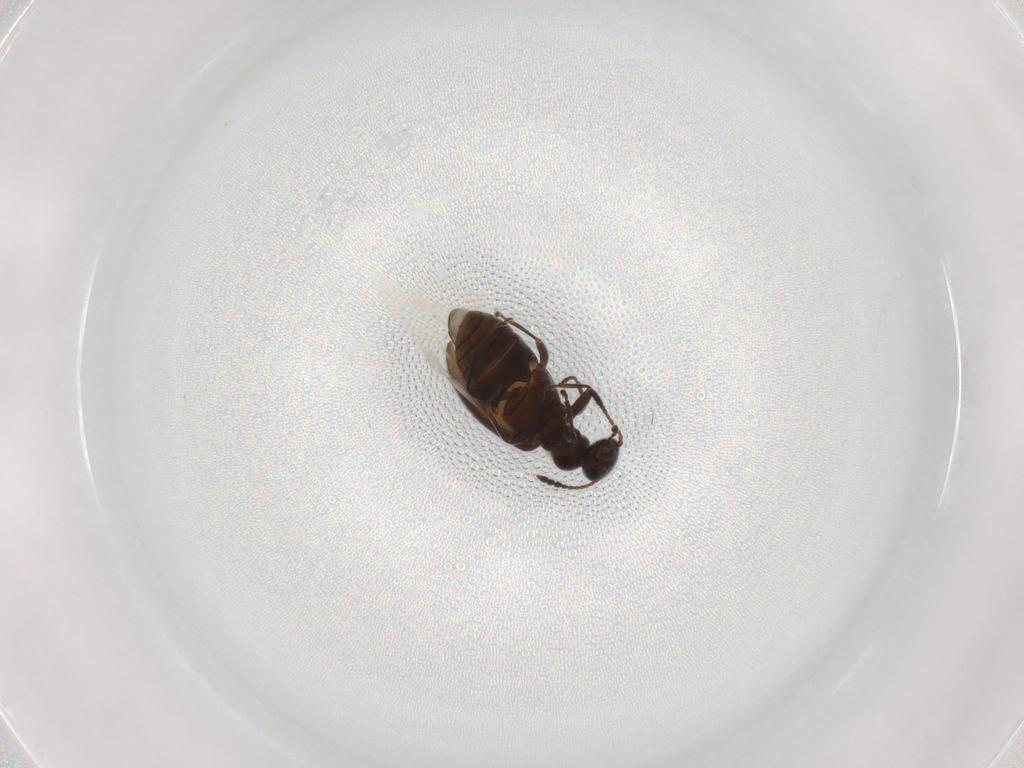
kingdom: Animalia
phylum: Arthropoda
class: Insecta
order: Coleoptera
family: Anthicidae
